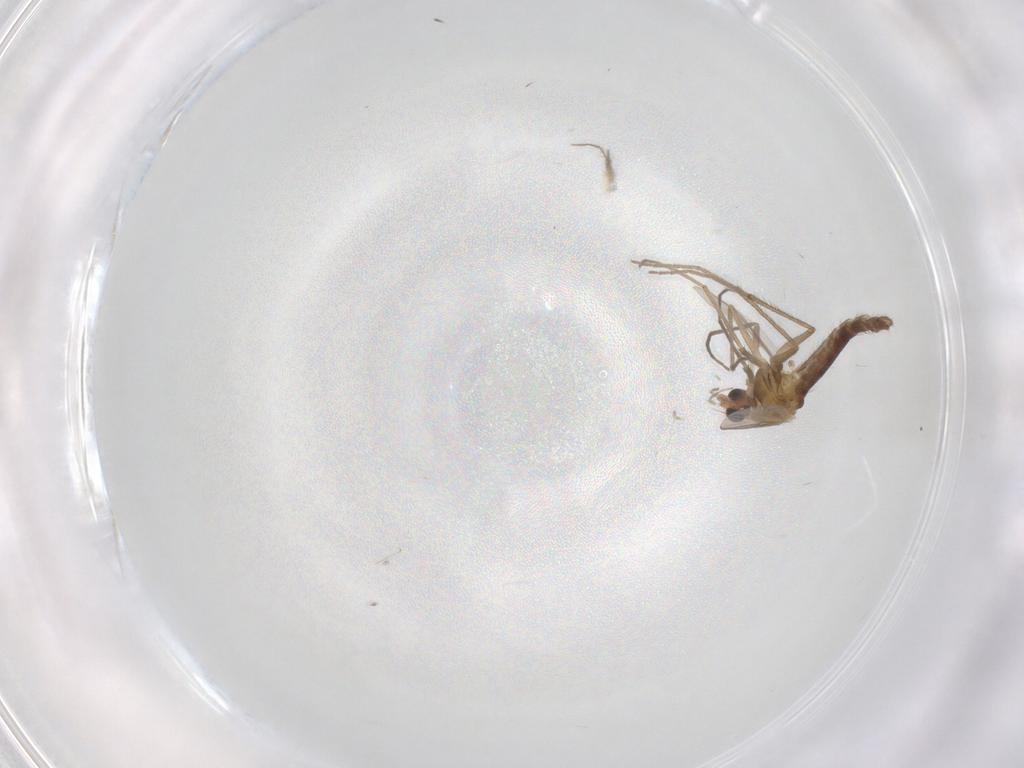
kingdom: Animalia
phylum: Arthropoda
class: Insecta
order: Diptera
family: Chironomidae
